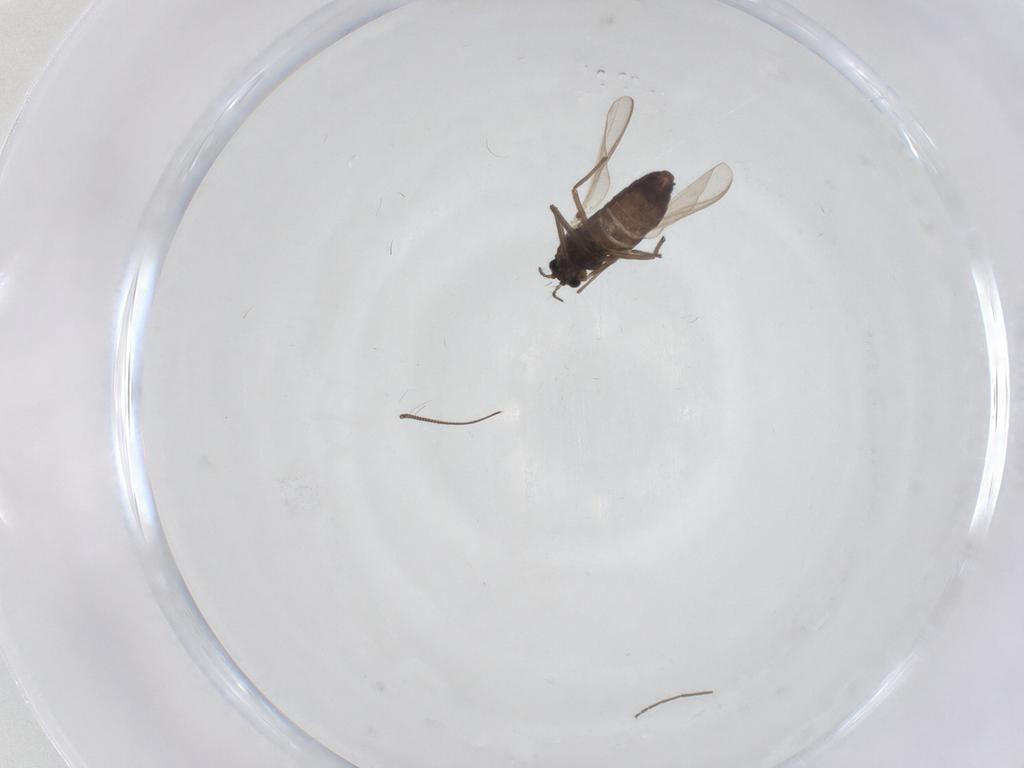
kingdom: Animalia
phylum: Arthropoda
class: Insecta
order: Diptera
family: Chironomidae
